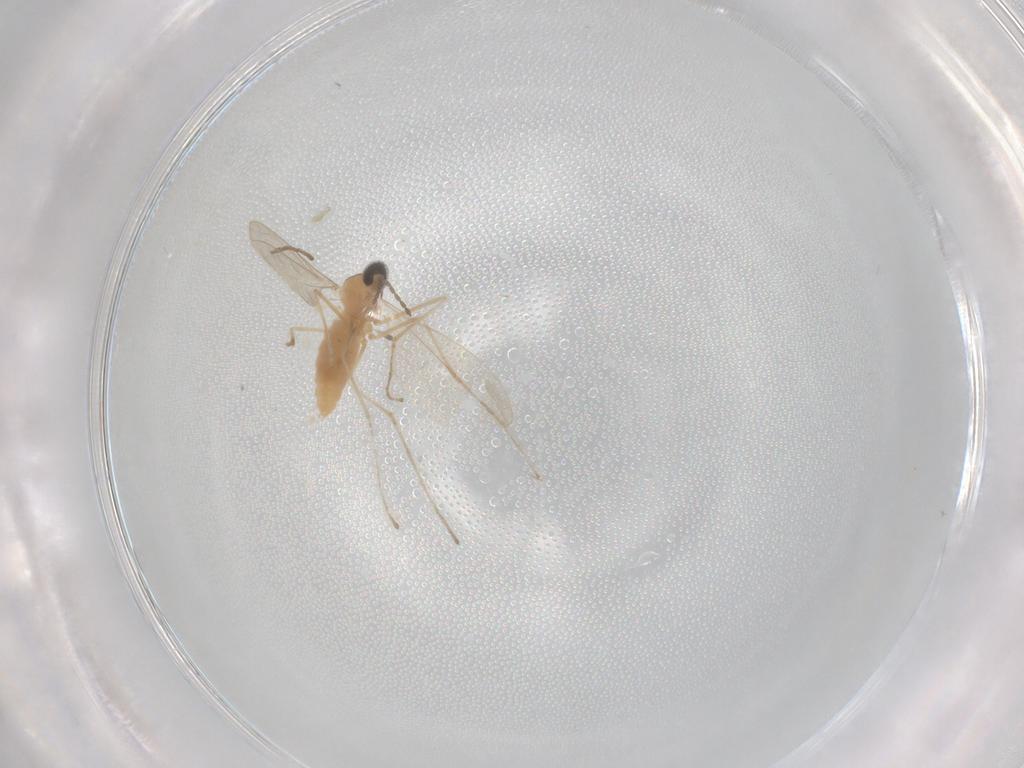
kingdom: Animalia
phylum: Arthropoda
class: Insecta
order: Diptera
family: Cecidomyiidae
